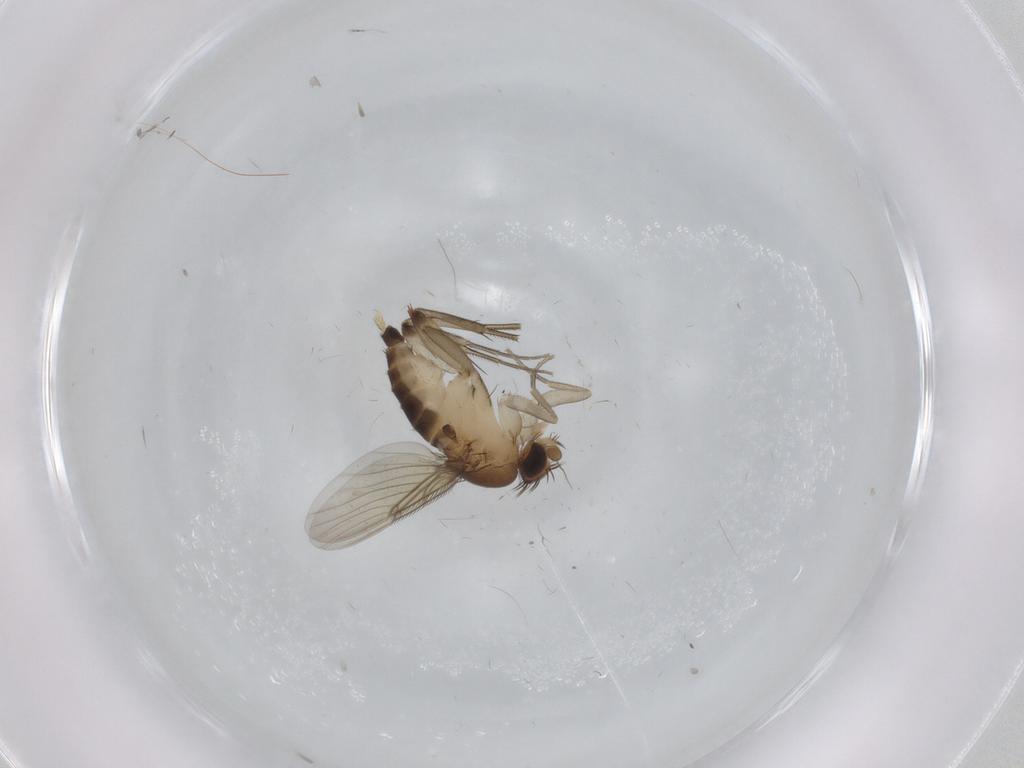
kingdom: Animalia
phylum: Arthropoda
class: Insecta
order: Diptera
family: Phoridae
